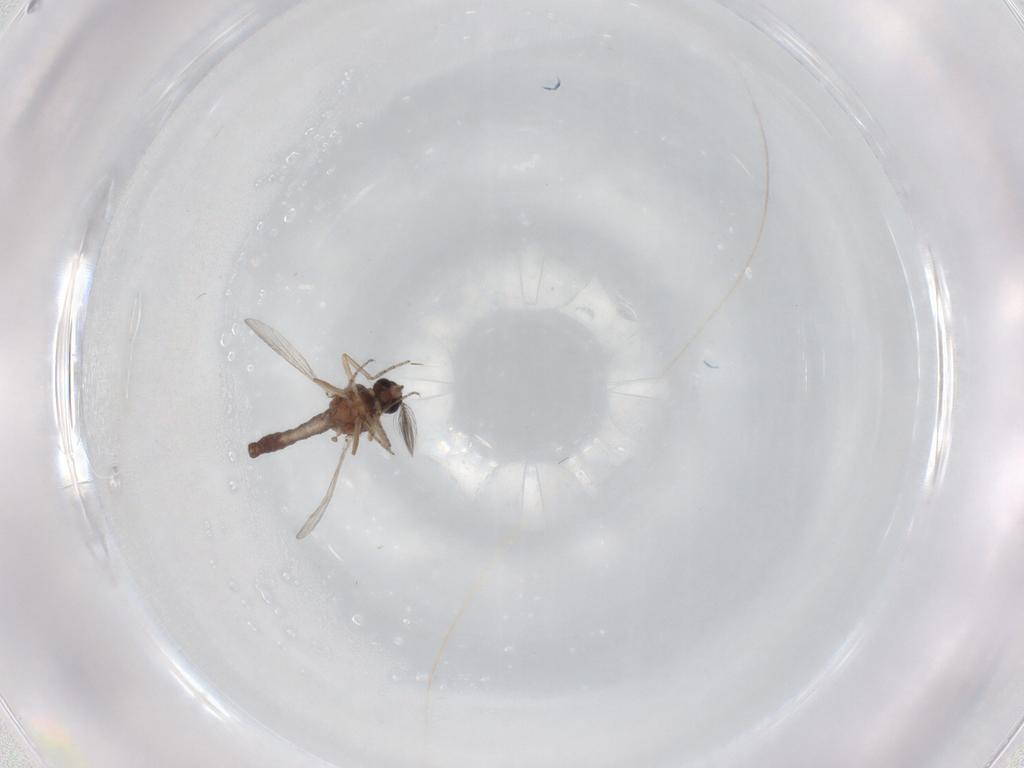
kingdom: Animalia
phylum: Arthropoda
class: Insecta
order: Diptera
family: Ceratopogonidae
